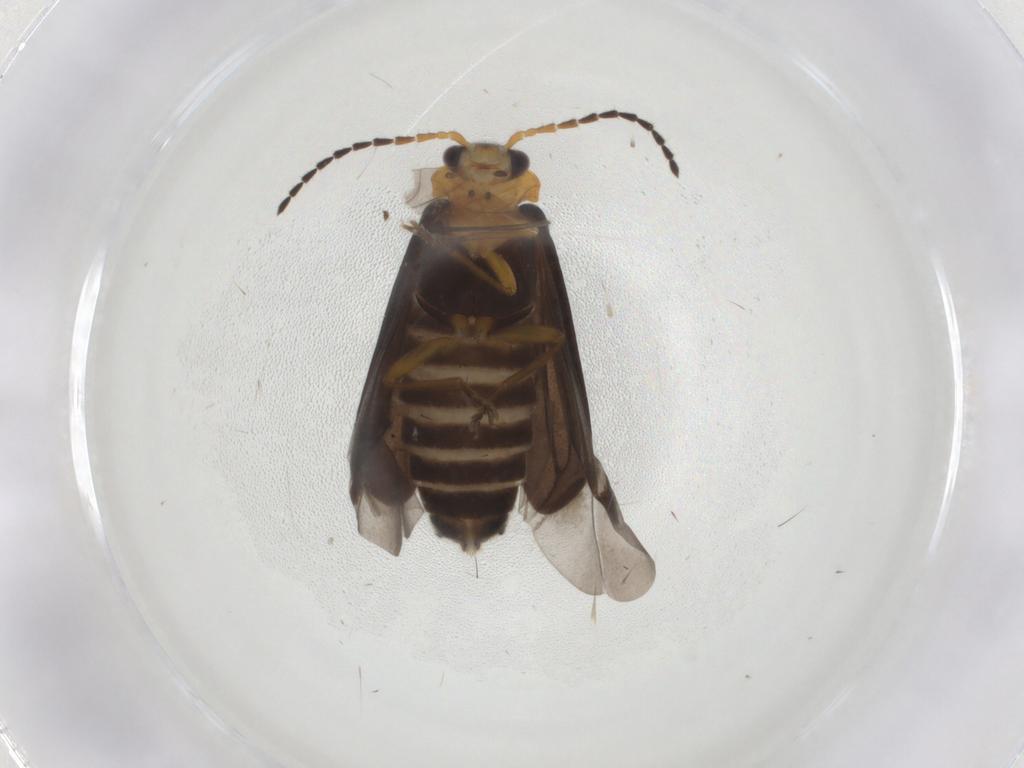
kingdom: Animalia
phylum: Arthropoda
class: Insecta
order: Coleoptera
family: Cantharidae
